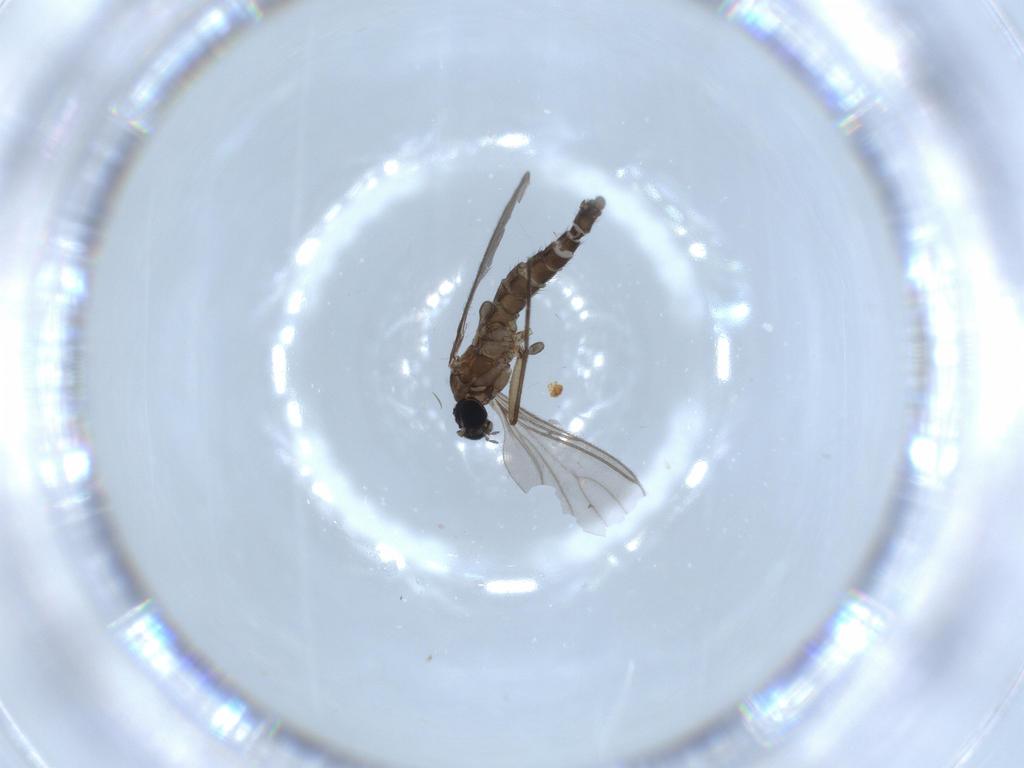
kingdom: Animalia
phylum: Arthropoda
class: Insecta
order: Diptera
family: Sciaridae
